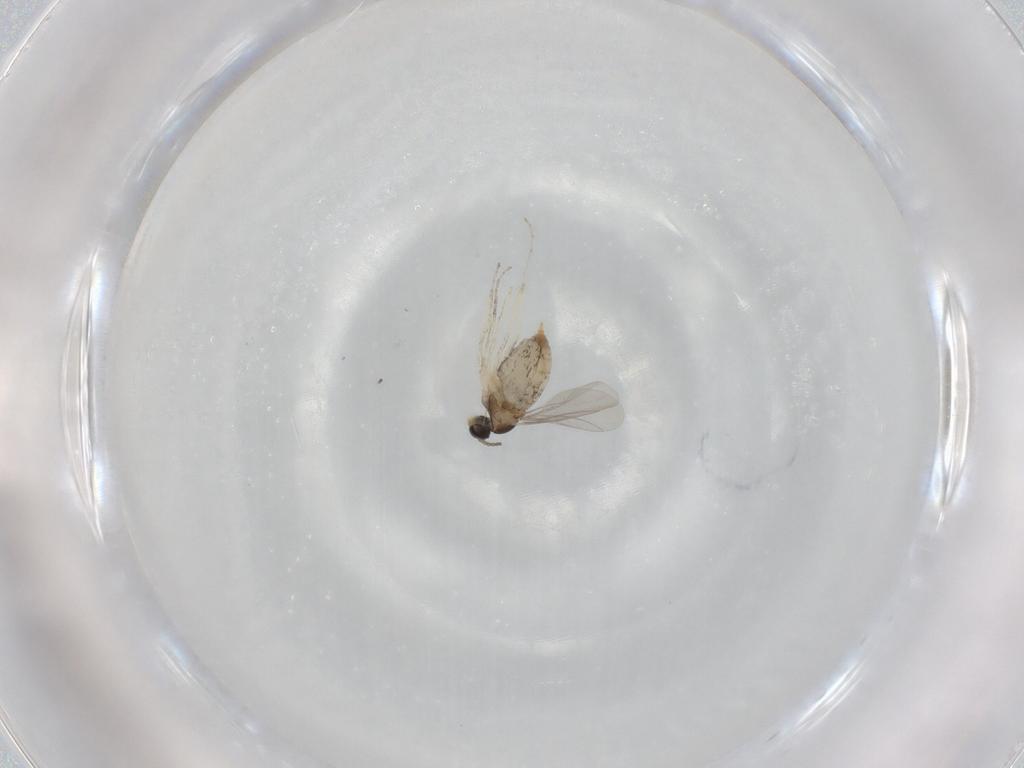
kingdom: Animalia
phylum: Arthropoda
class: Insecta
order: Diptera
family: Cecidomyiidae
